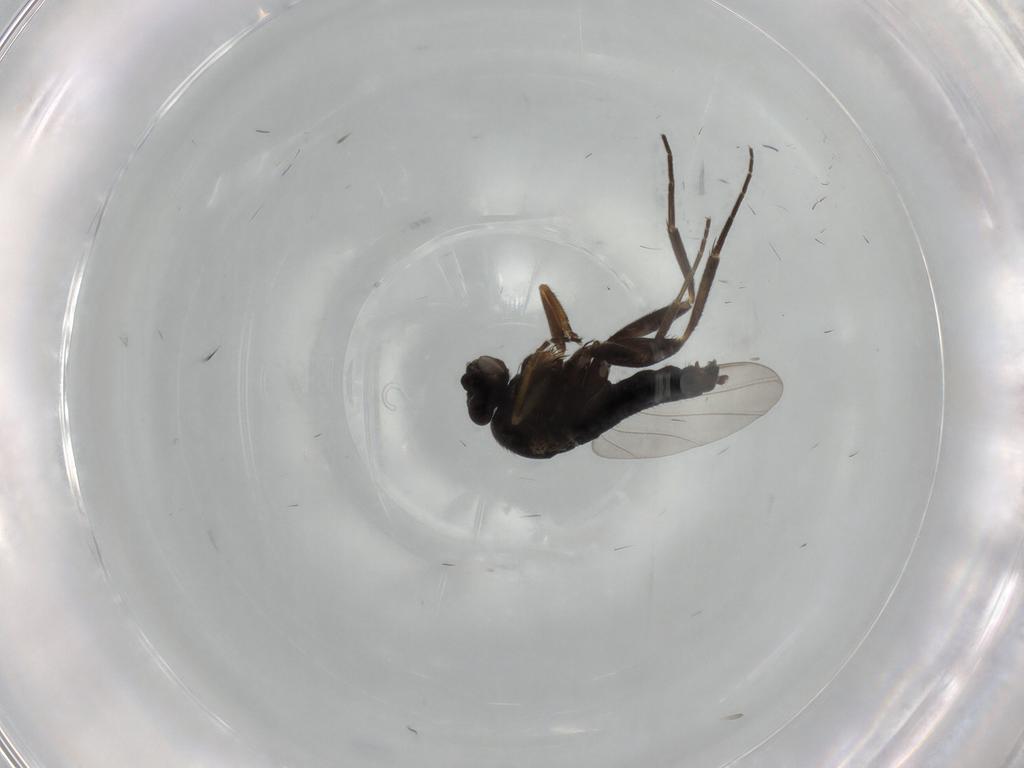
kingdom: Animalia
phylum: Arthropoda
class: Insecta
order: Diptera
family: Phoridae
